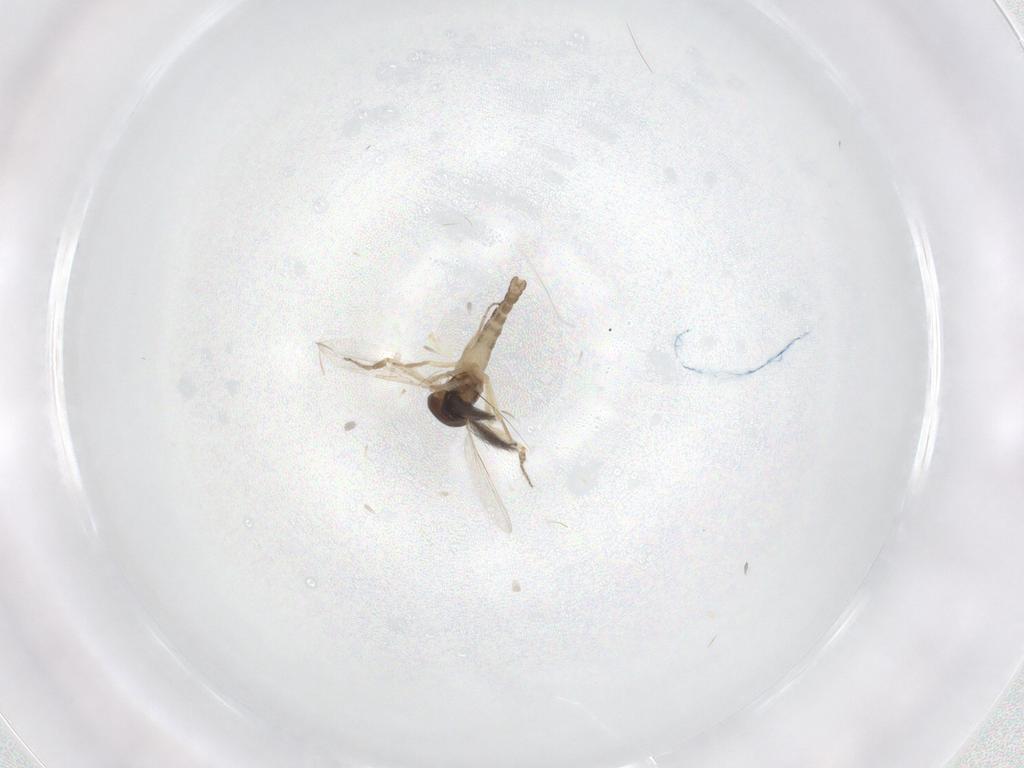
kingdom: Animalia
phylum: Arthropoda
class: Insecta
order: Diptera
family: Ceratopogonidae
